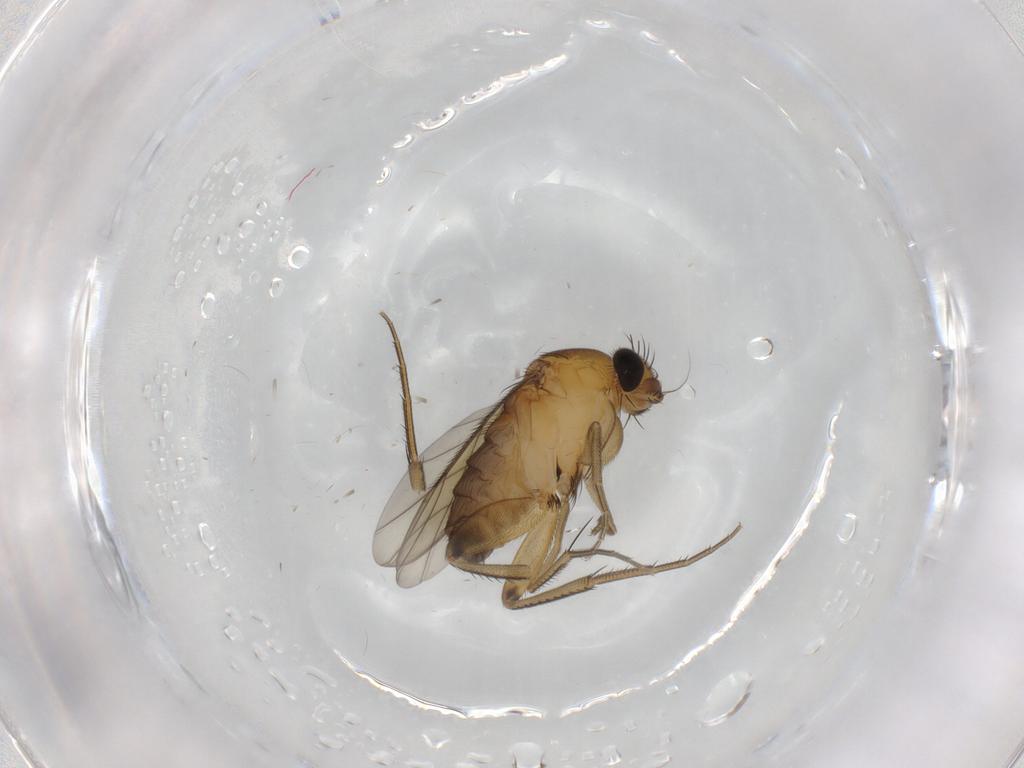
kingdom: Animalia
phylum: Arthropoda
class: Insecta
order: Diptera
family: Phoridae
